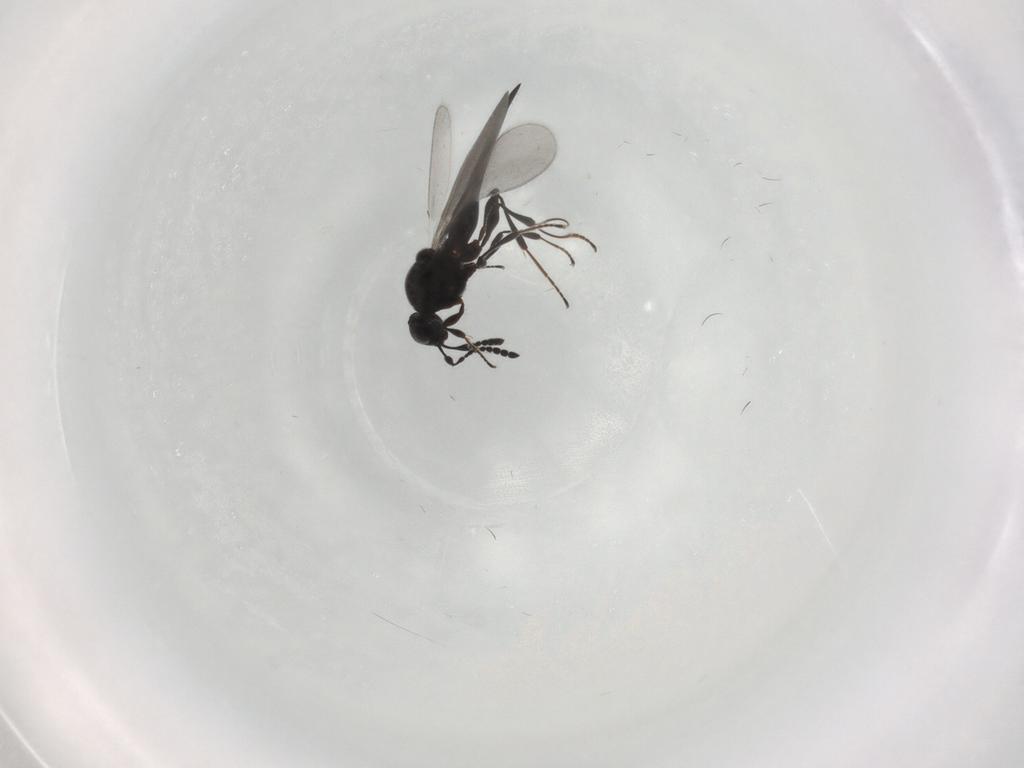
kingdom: Animalia
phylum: Arthropoda
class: Insecta
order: Hymenoptera
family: Platygastridae
